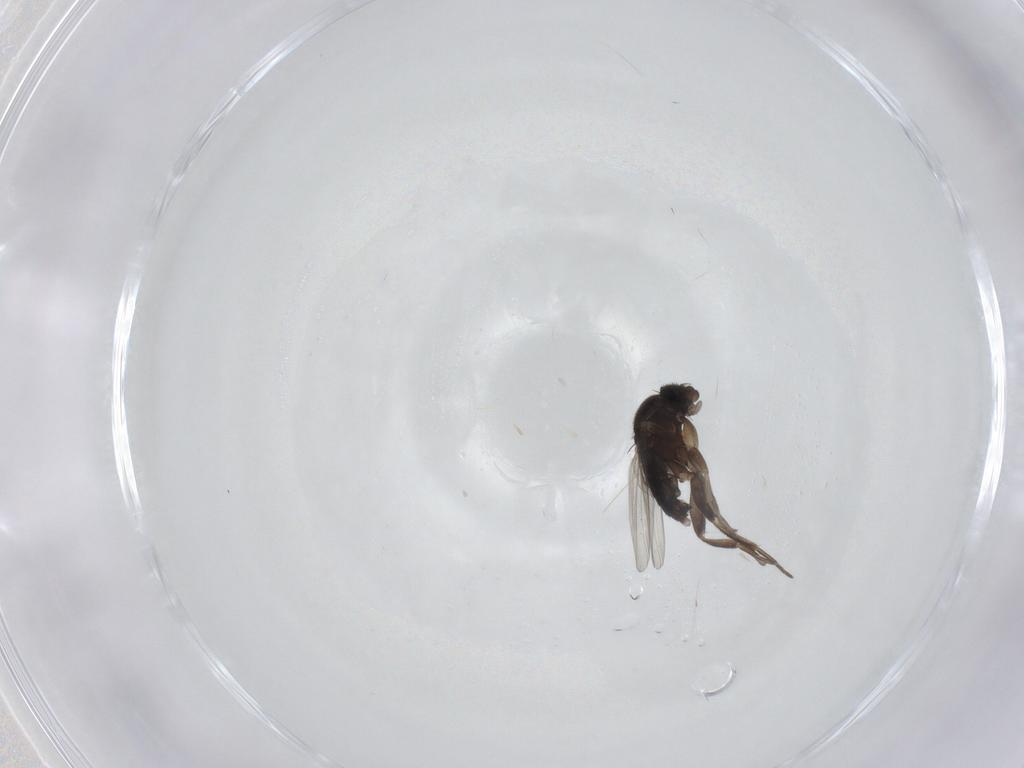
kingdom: Animalia
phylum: Arthropoda
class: Insecta
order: Diptera
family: Phoridae
